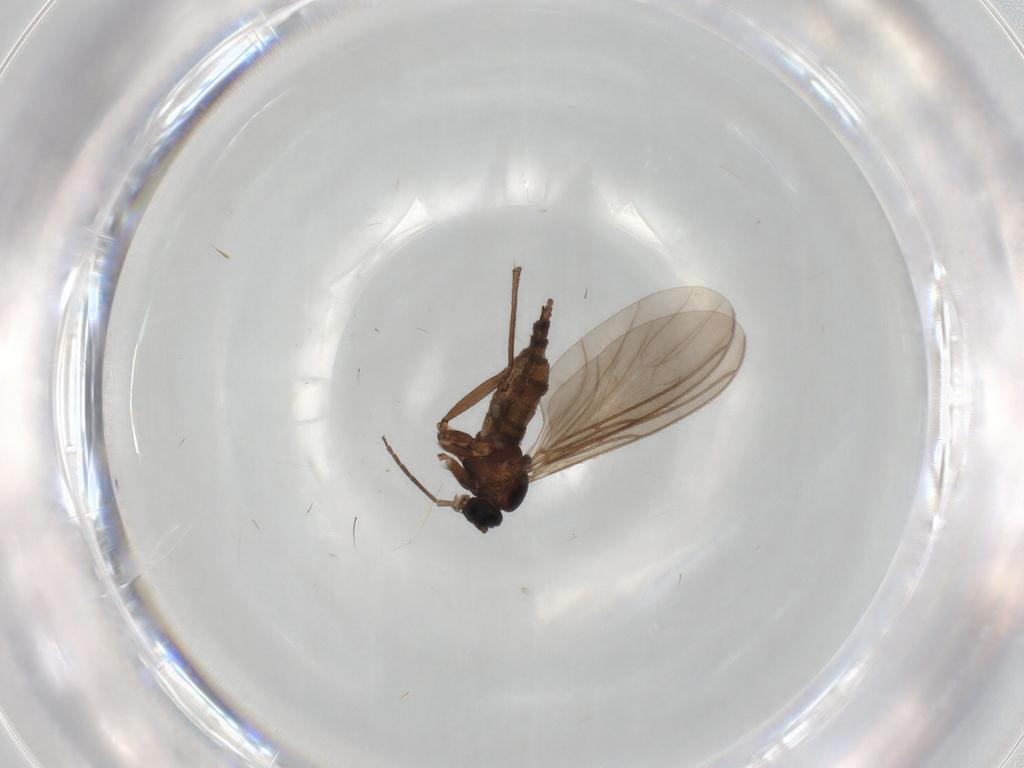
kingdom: Animalia
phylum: Arthropoda
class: Insecta
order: Diptera
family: Sciaridae
